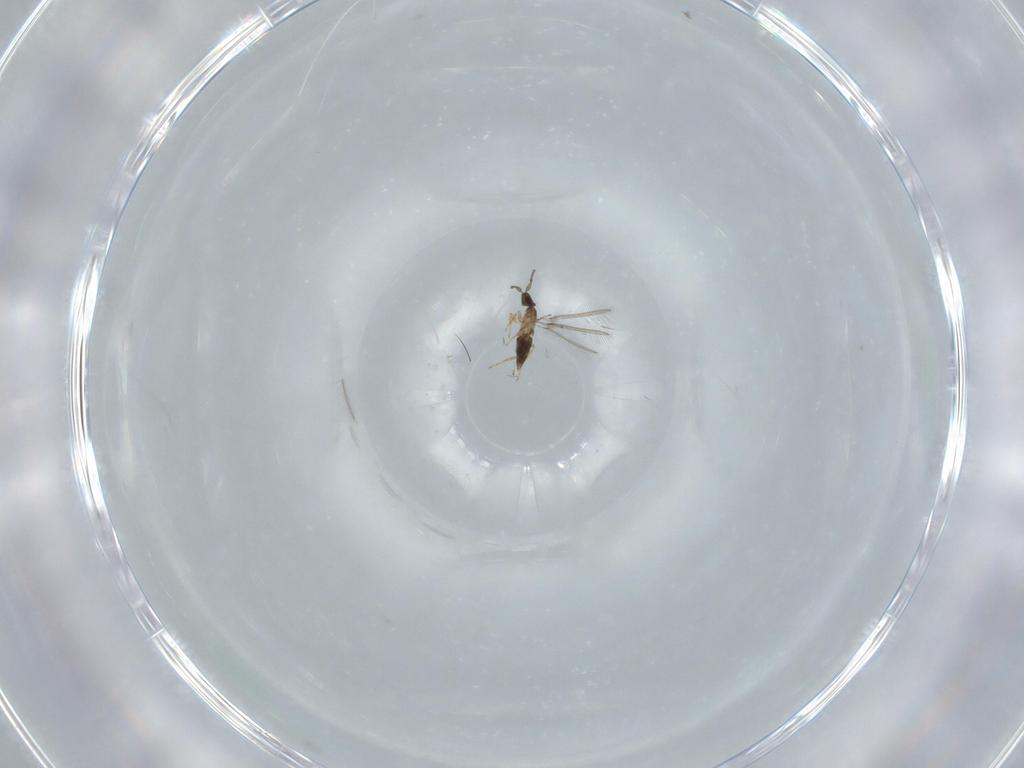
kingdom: Animalia
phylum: Arthropoda
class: Insecta
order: Hymenoptera
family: Mymaridae
